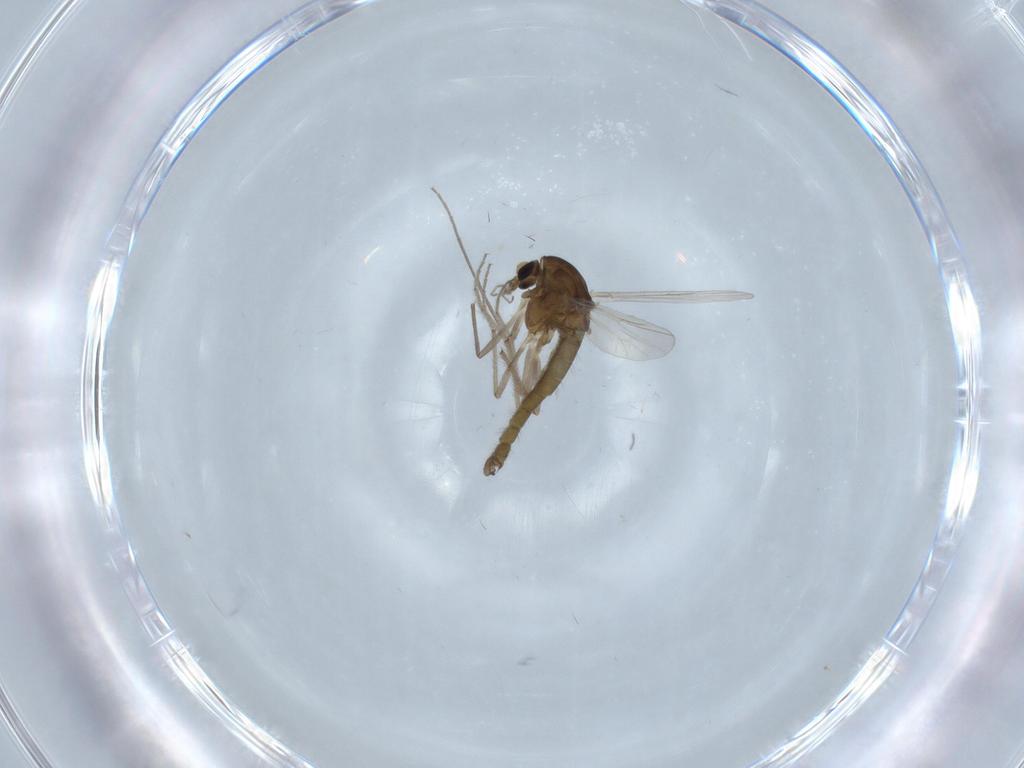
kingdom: Animalia
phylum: Arthropoda
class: Insecta
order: Diptera
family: Chironomidae
